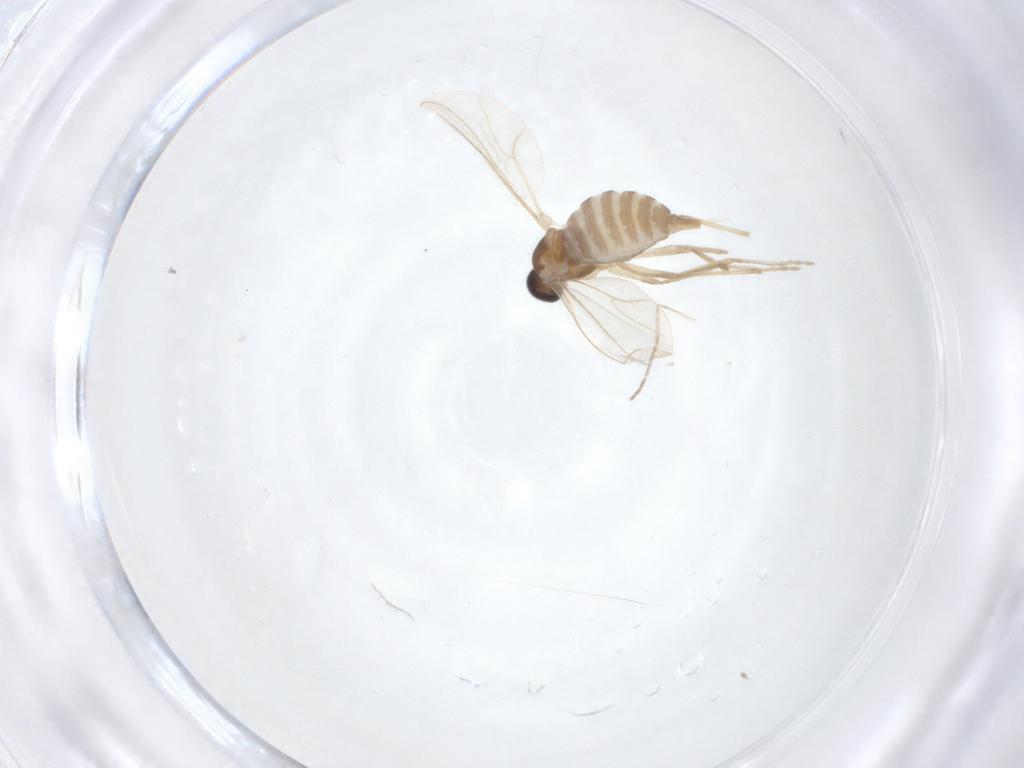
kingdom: Animalia
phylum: Arthropoda
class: Insecta
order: Diptera
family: Cecidomyiidae
